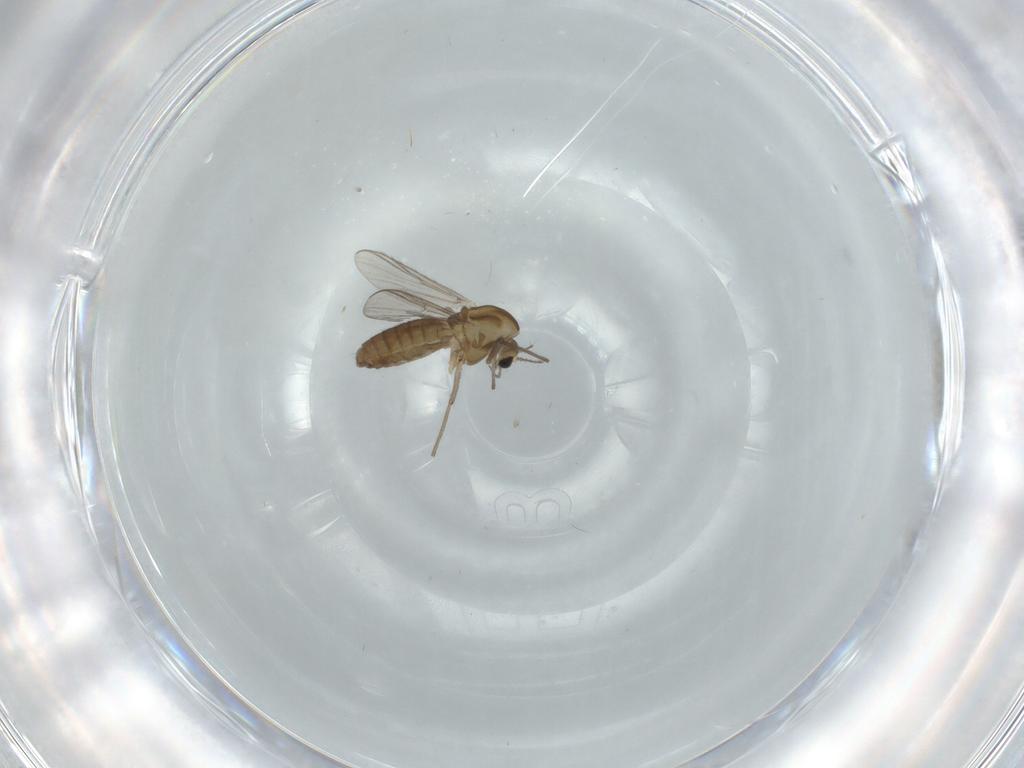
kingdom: Animalia
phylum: Arthropoda
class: Insecta
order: Diptera
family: Chironomidae
